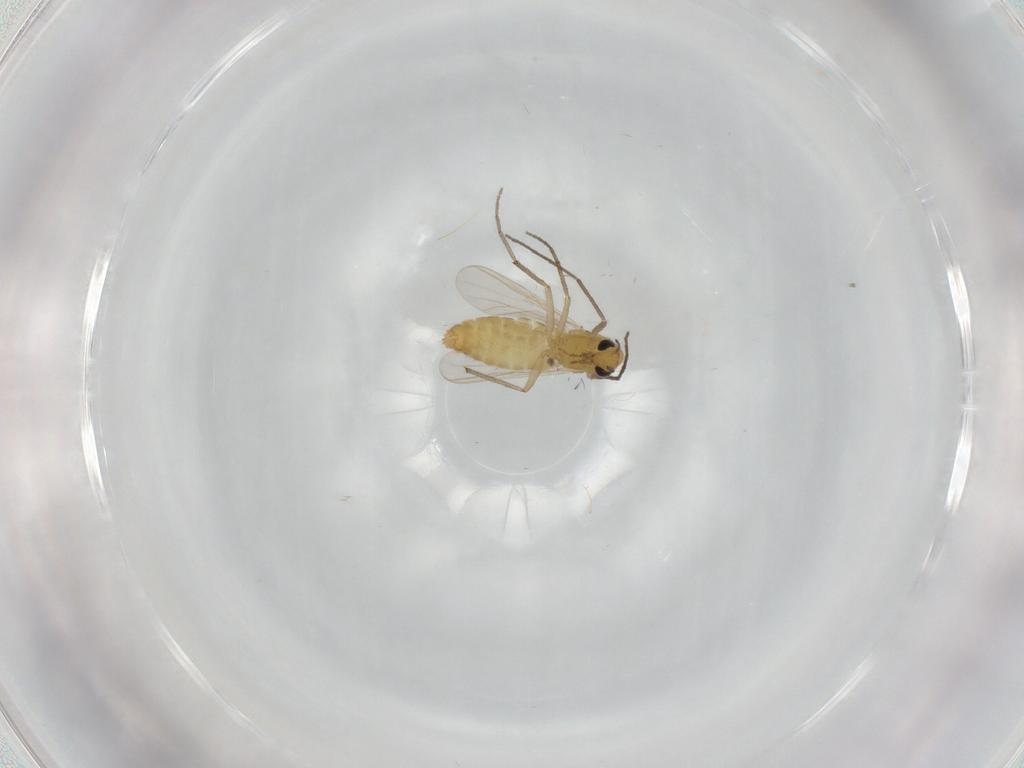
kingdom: Animalia
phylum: Arthropoda
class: Insecta
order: Diptera
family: Chironomidae
